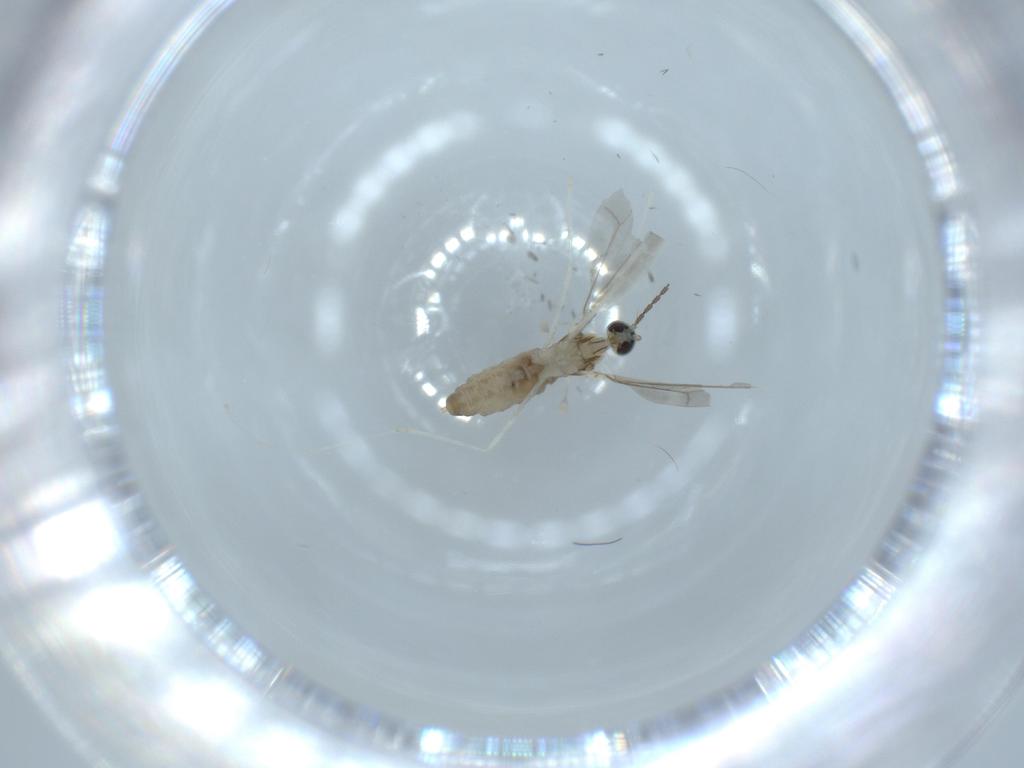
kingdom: Animalia
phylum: Arthropoda
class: Insecta
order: Diptera
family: Cecidomyiidae
